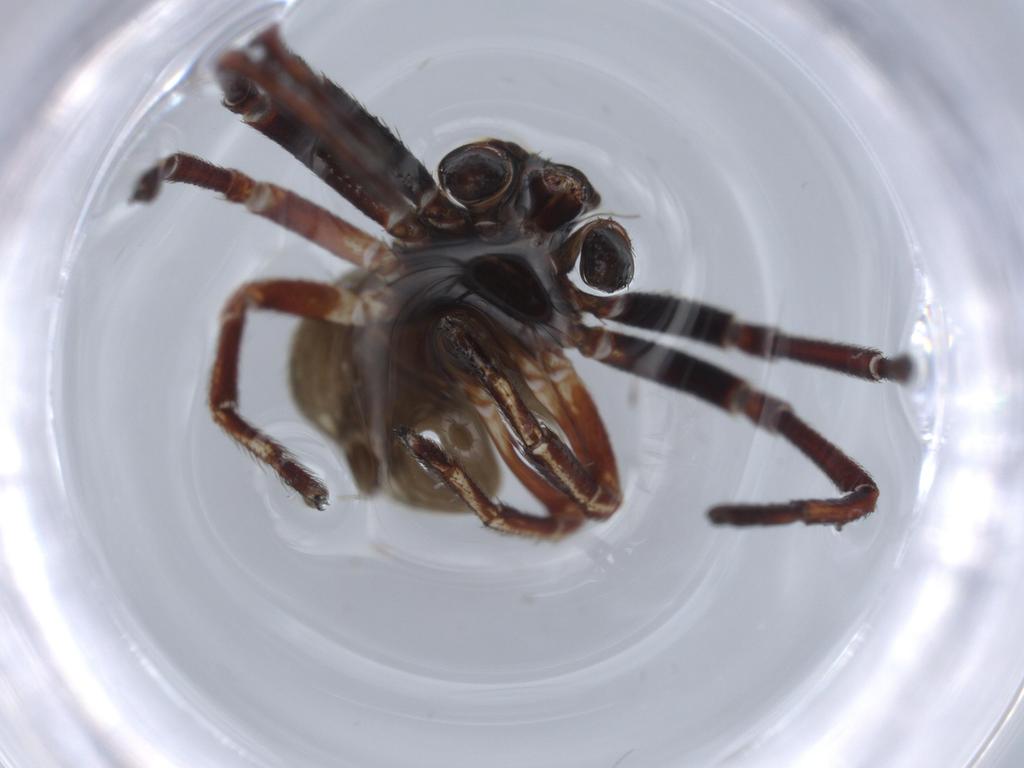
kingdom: Animalia
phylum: Arthropoda
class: Arachnida
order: Araneae
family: Thomisidae
